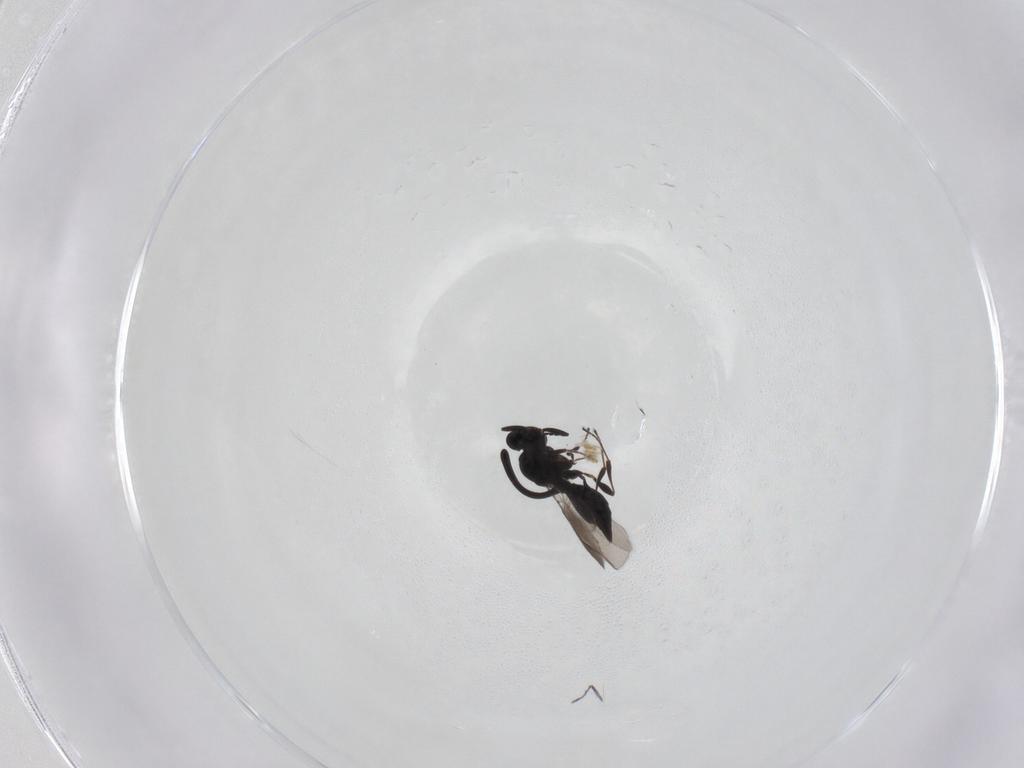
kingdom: Animalia
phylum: Arthropoda
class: Insecta
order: Hymenoptera
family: Platygastridae
